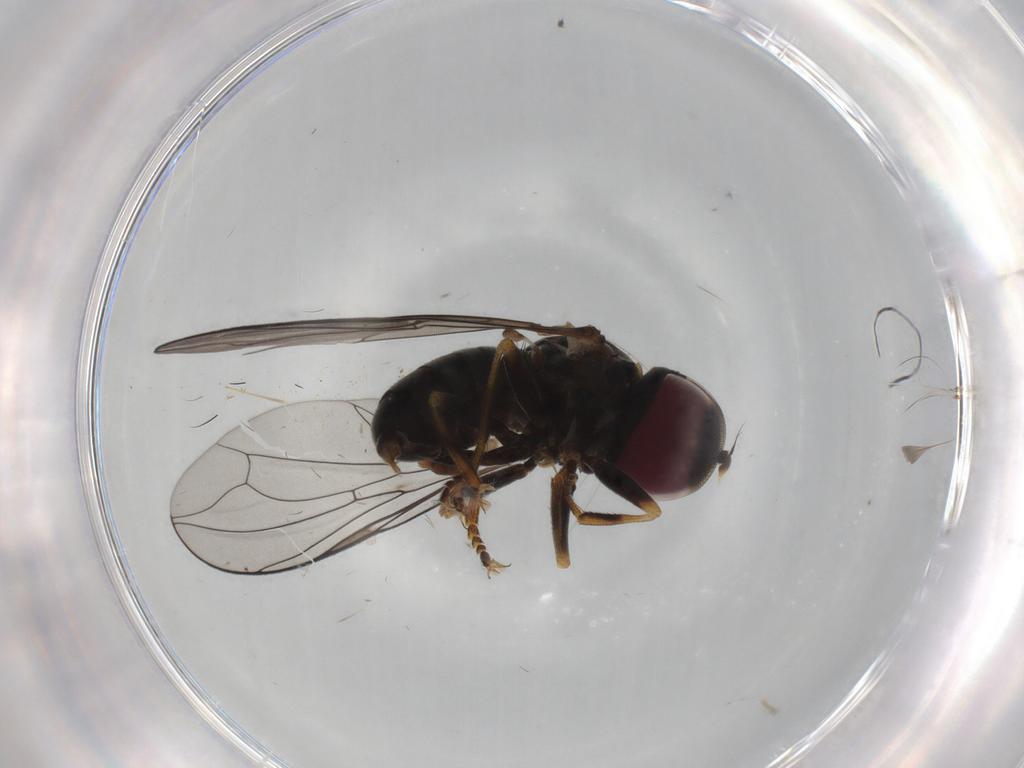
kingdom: Animalia
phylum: Arthropoda
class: Insecta
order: Diptera
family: Pipunculidae
